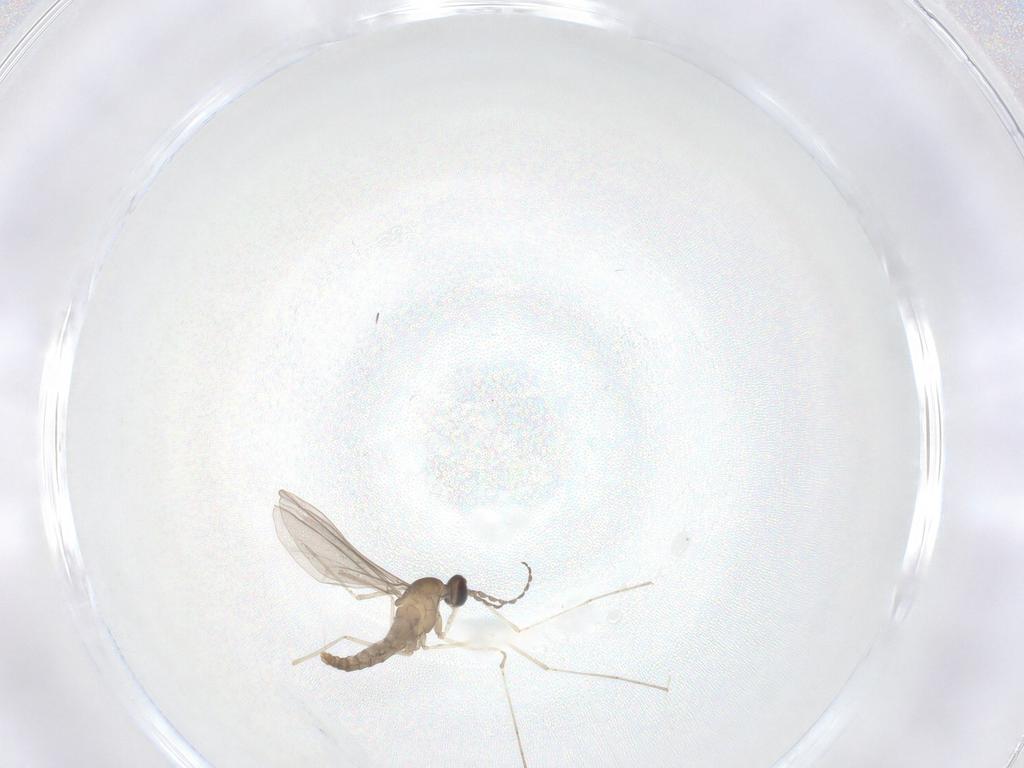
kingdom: Animalia
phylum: Arthropoda
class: Insecta
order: Diptera
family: Cecidomyiidae
